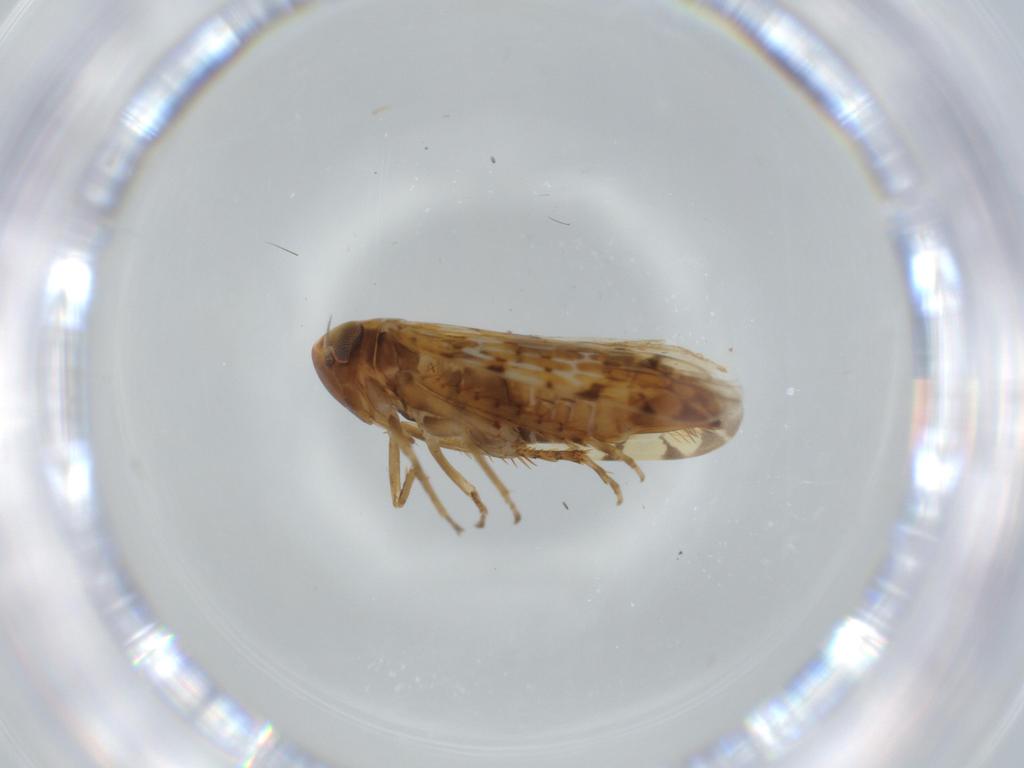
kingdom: Animalia
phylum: Arthropoda
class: Insecta
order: Hemiptera
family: Cicadellidae
